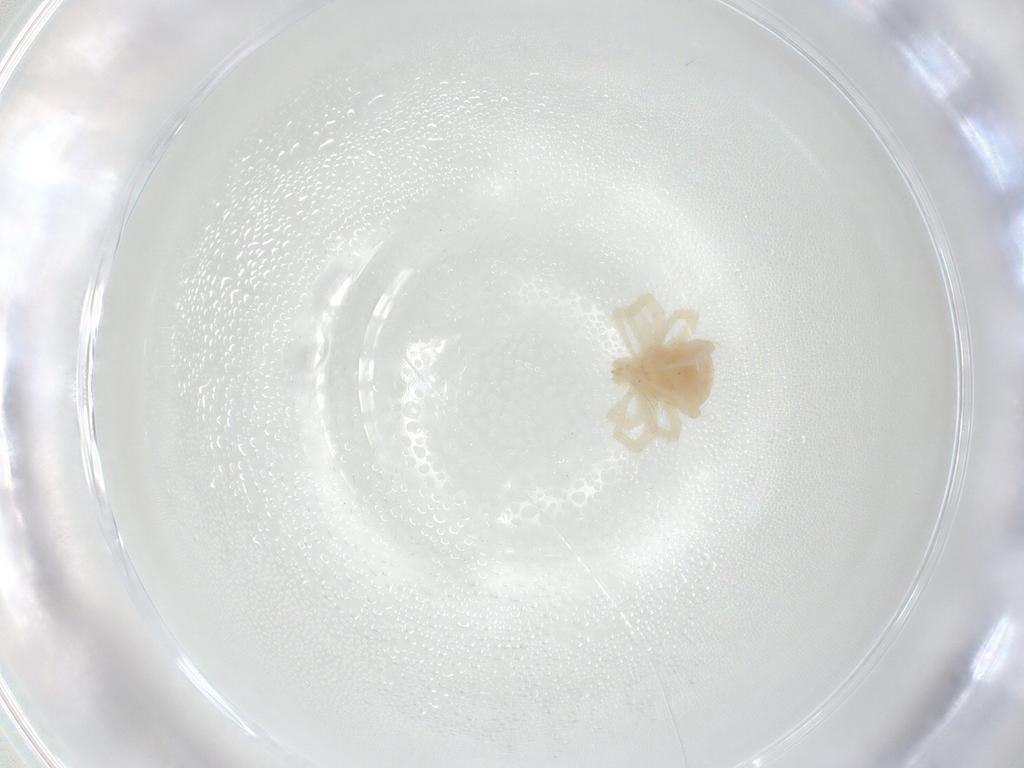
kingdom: Animalia
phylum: Arthropoda
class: Arachnida
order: Trombidiformes
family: Anystidae
